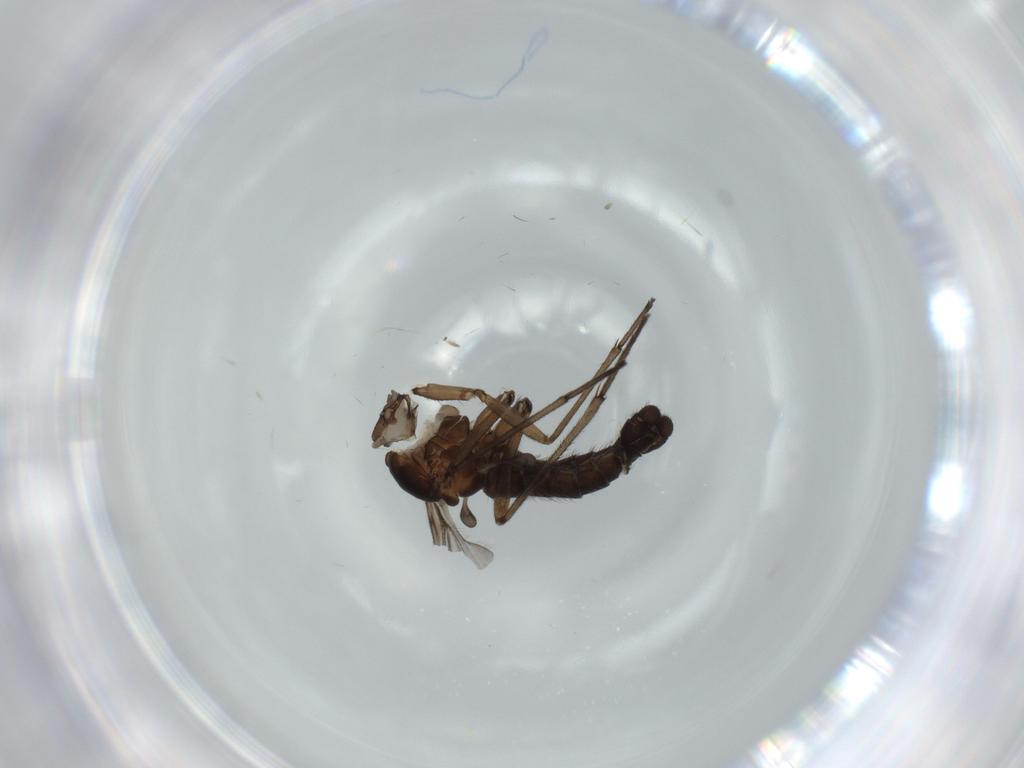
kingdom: Animalia
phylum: Arthropoda
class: Insecta
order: Diptera
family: Sciaridae
